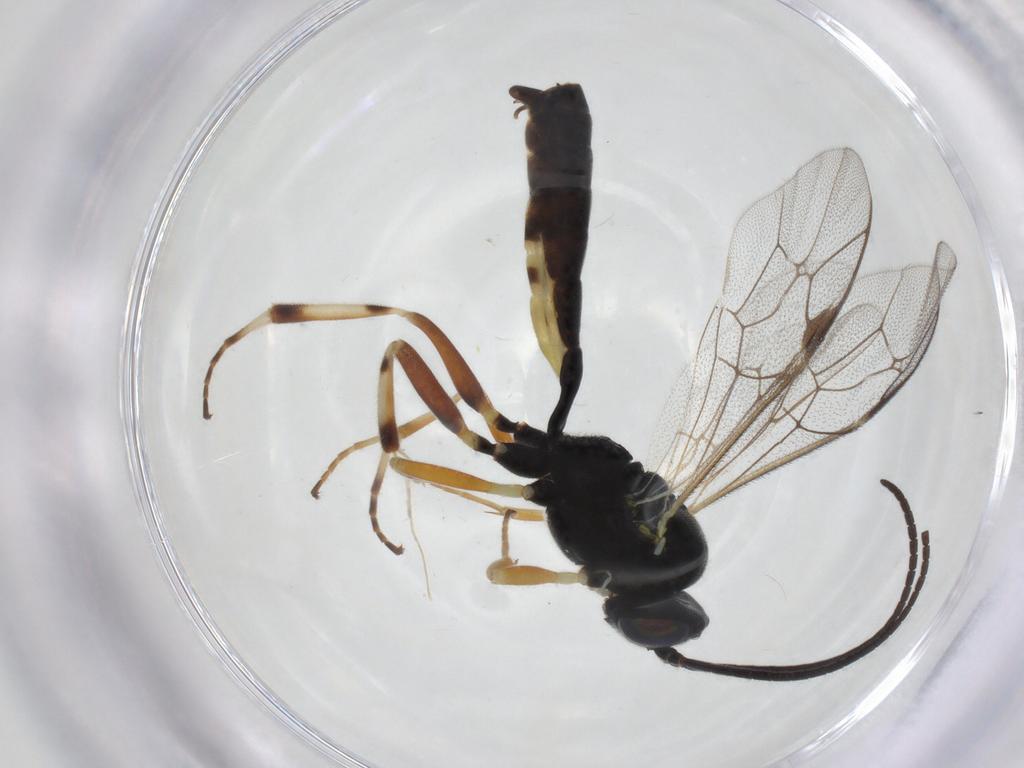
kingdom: Animalia
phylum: Arthropoda
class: Insecta
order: Hymenoptera
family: Ichneumonidae
